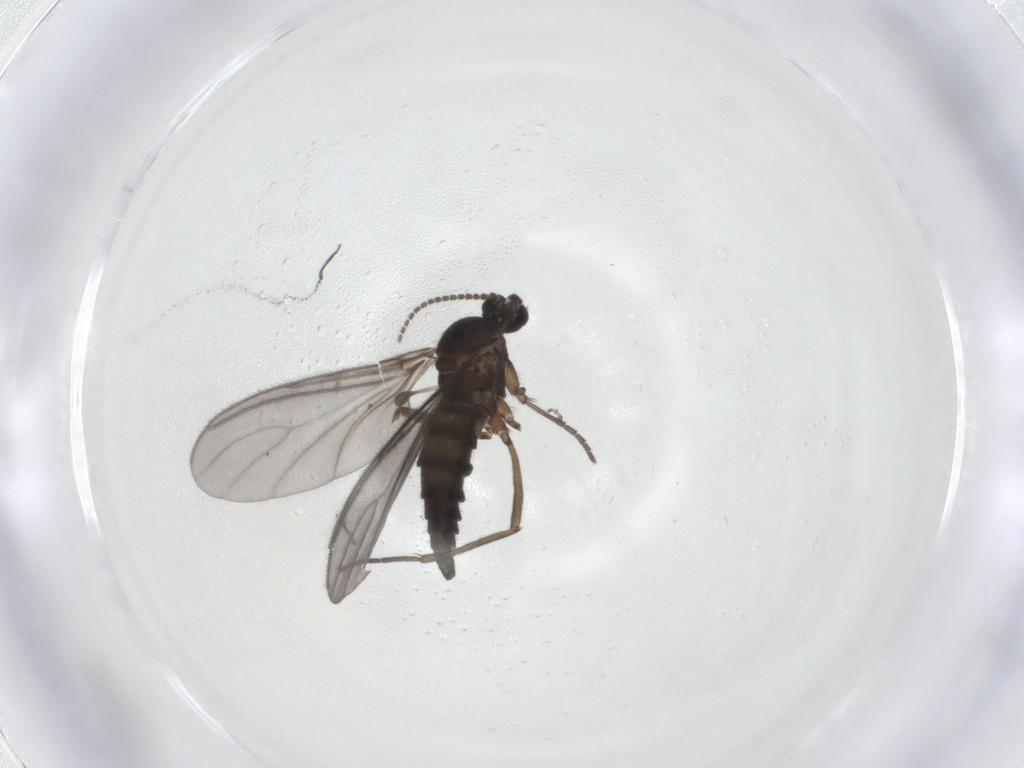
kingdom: Animalia
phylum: Arthropoda
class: Insecta
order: Diptera
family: Sciaridae
